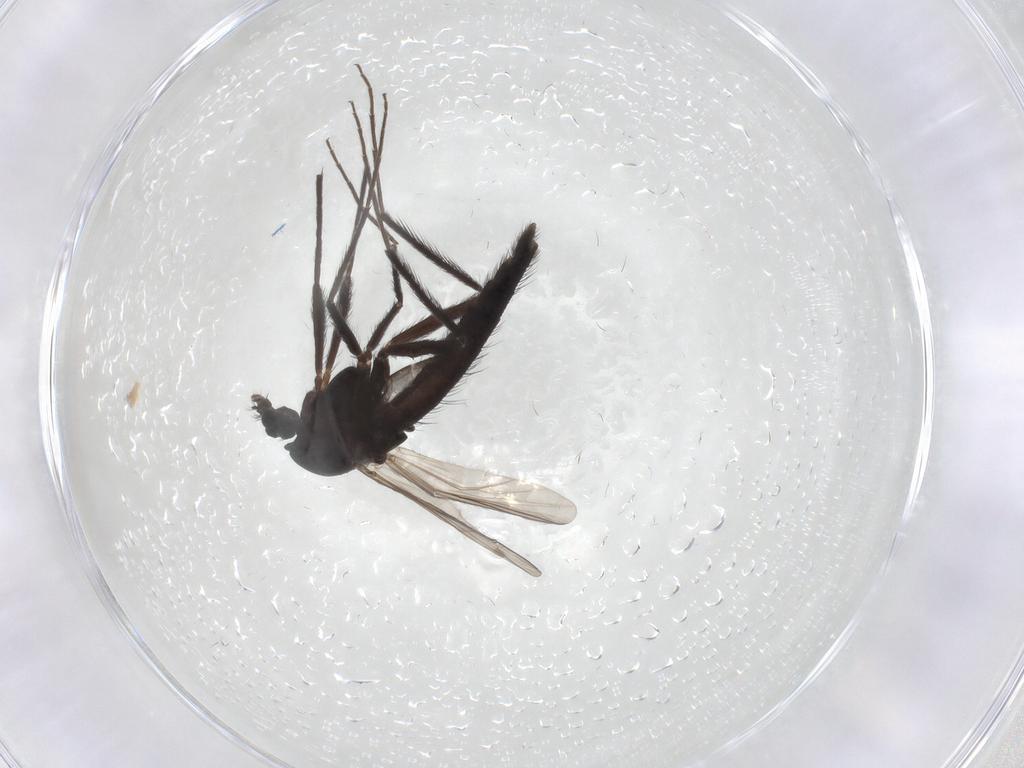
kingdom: Animalia
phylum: Arthropoda
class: Insecta
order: Diptera
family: Chironomidae
